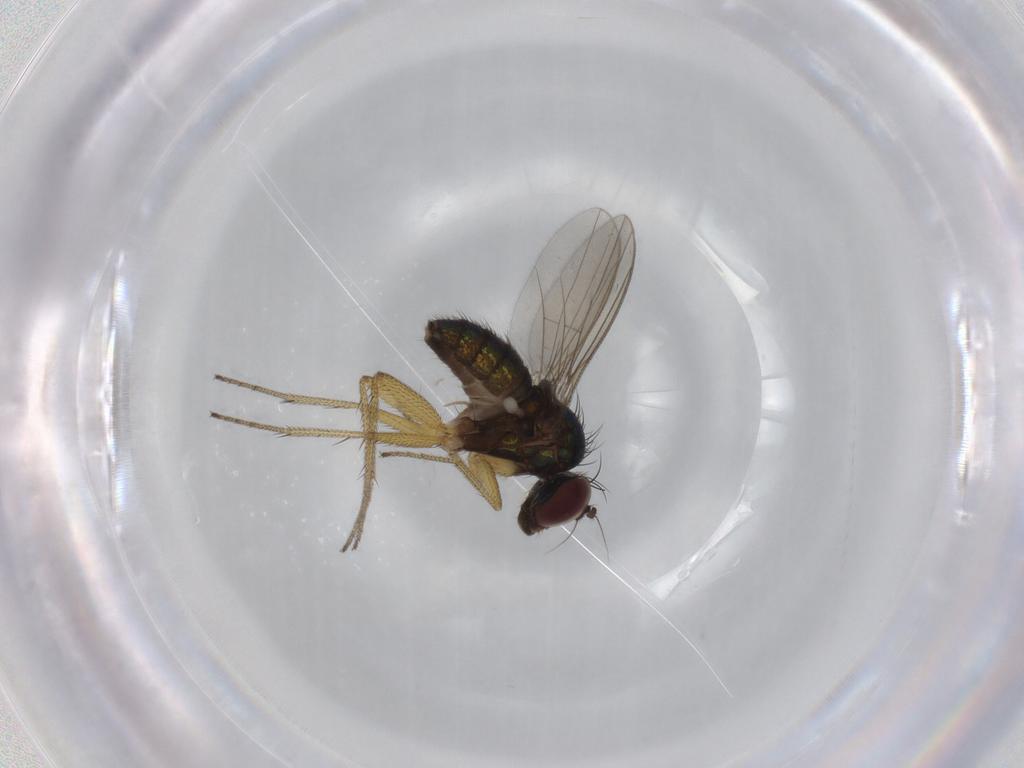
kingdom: Animalia
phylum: Arthropoda
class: Insecta
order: Diptera
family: Dolichopodidae
